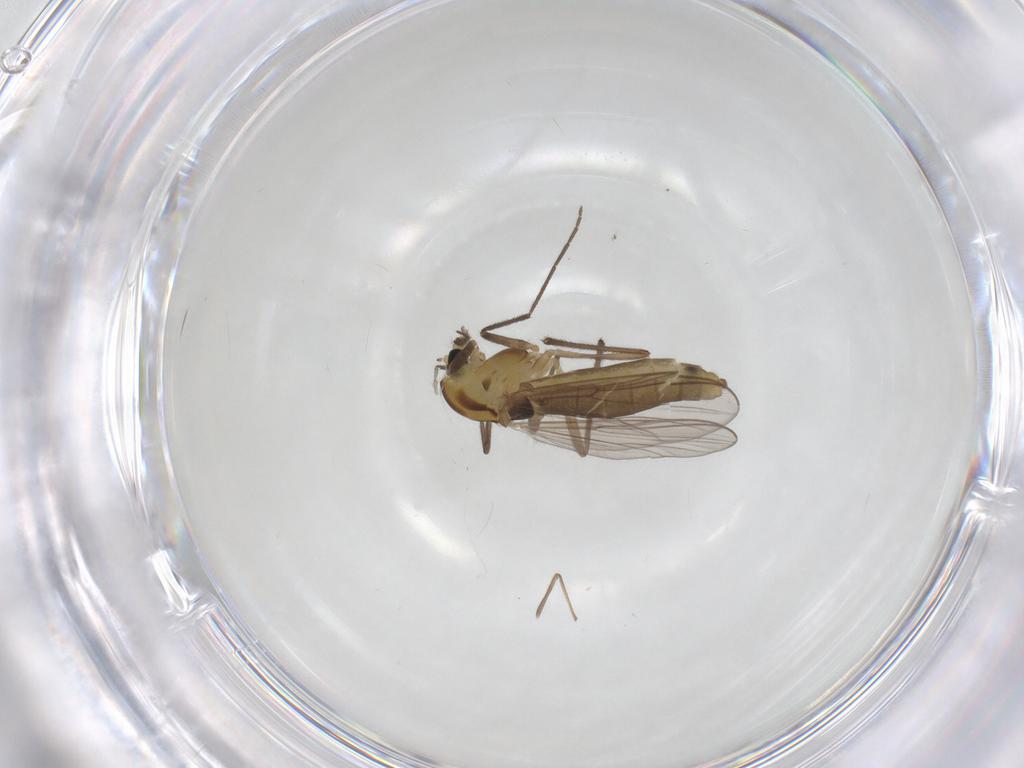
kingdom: Animalia
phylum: Arthropoda
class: Insecta
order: Diptera
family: Chironomidae
